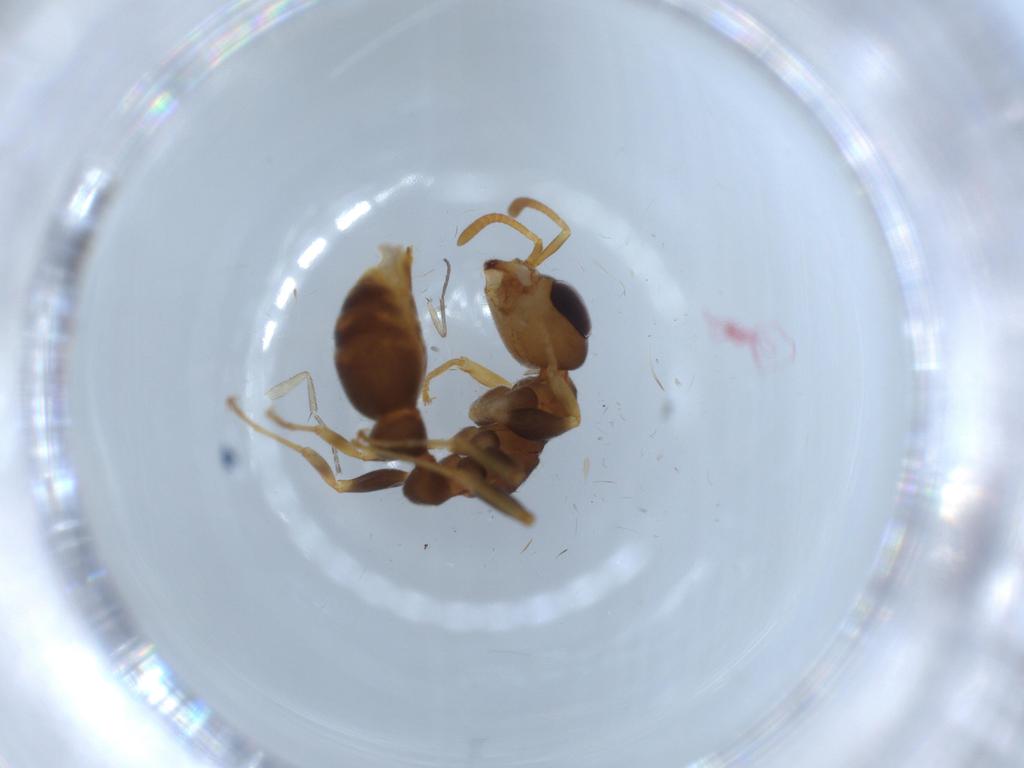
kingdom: Animalia
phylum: Arthropoda
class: Insecta
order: Hymenoptera
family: Formicidae
